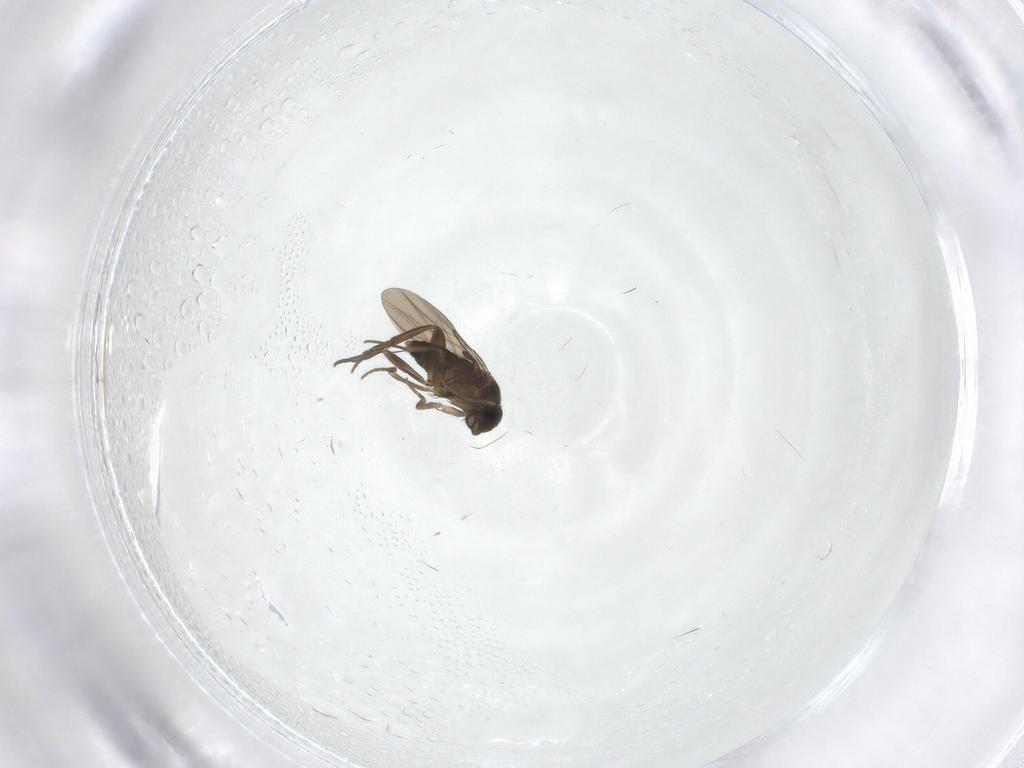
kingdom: Animalia
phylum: Arthropoda
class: Insecta
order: Diptera
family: Phoridae
